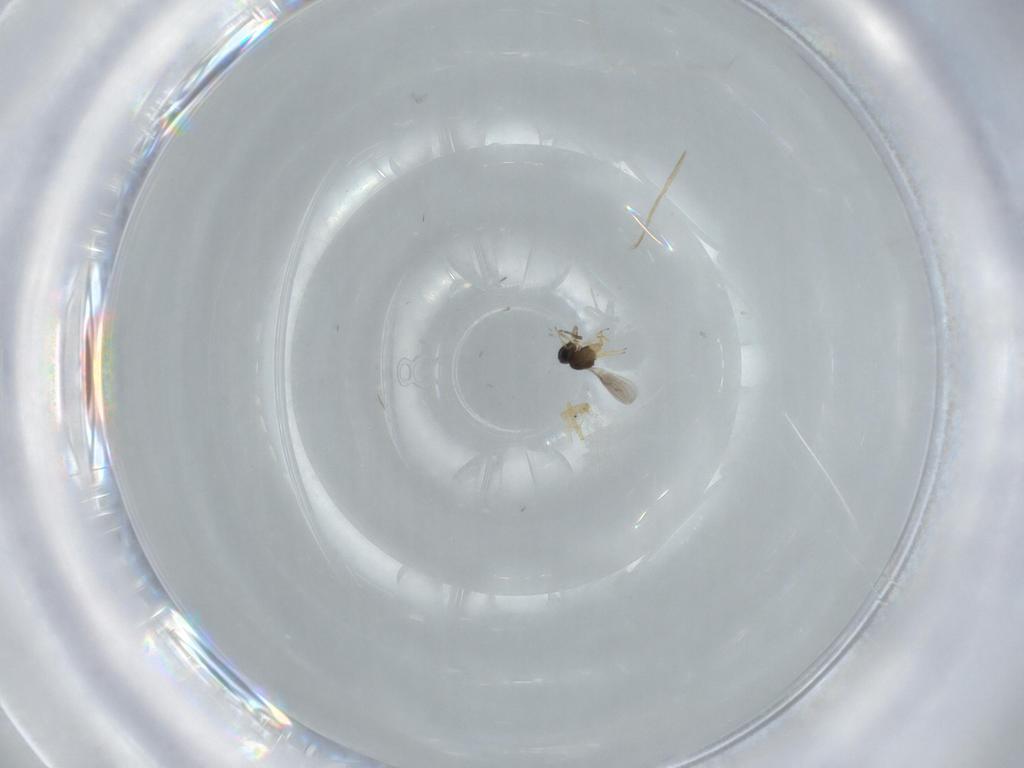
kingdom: Animalia
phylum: Arthropoda
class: Insecta
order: Hymenoptera
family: Scelionidae
